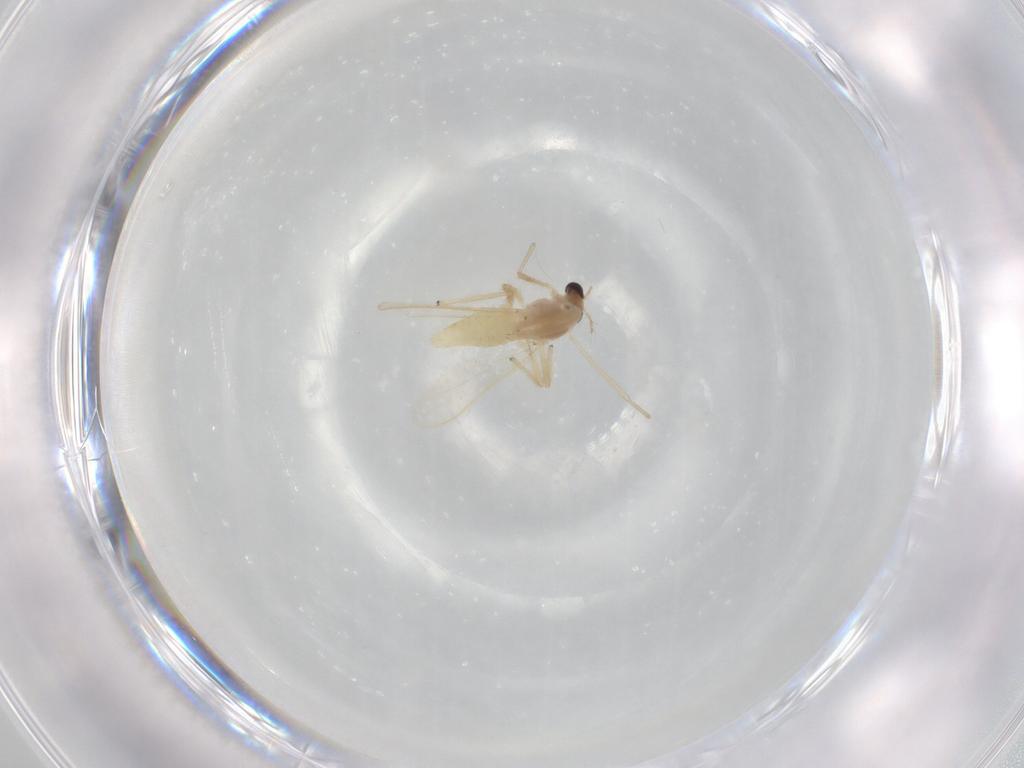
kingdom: Animalia
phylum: Arthropoda
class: Insecta
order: Diptera
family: Chironomidae
